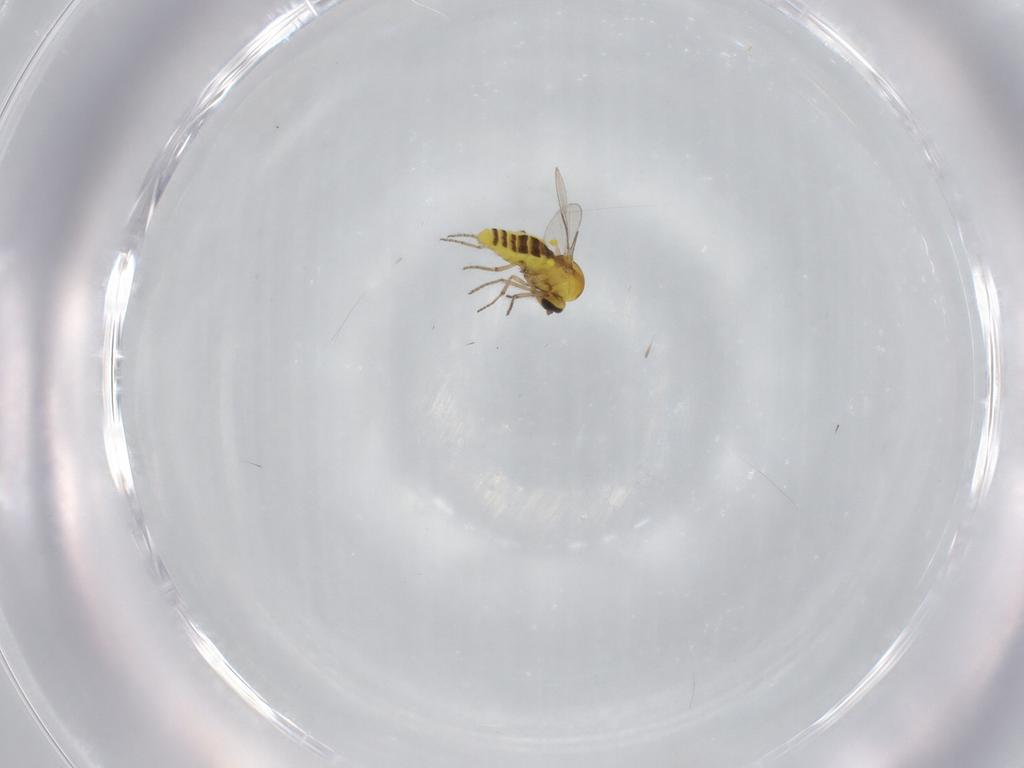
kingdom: Animalia
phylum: Arthropoda
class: Insecta
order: Diptera
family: Ceratopogonidae
